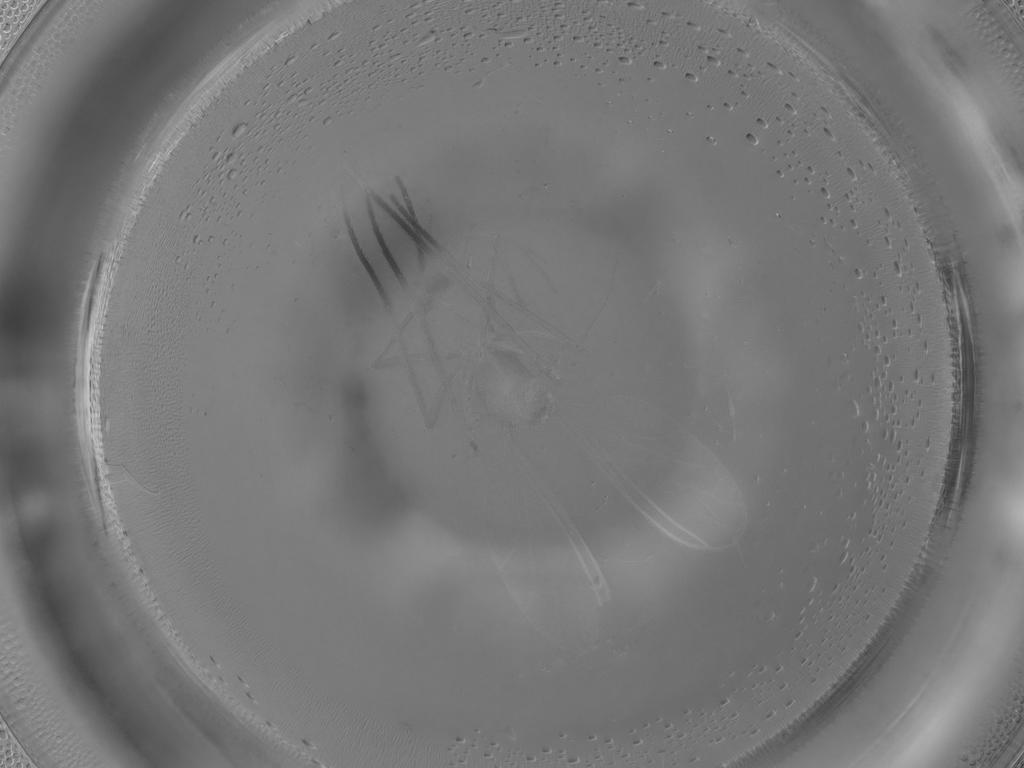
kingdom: Animalia
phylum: Arthropoda
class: Insecta
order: Diptera
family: Sciaridae
